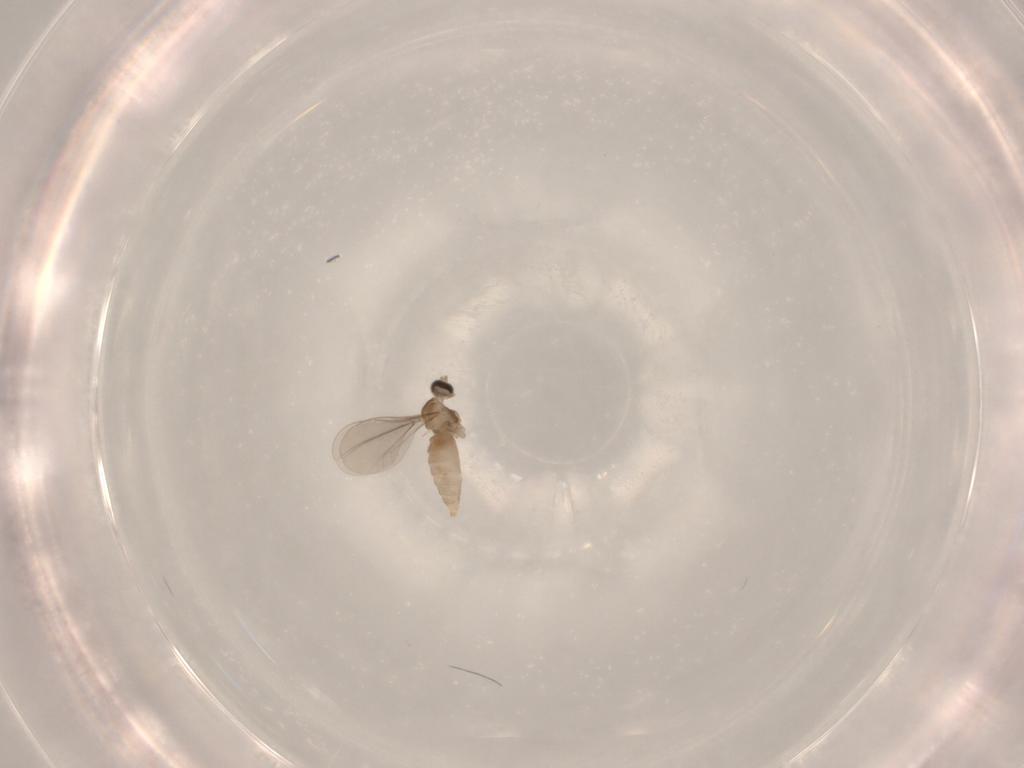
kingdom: Animalia
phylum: Arthropoda
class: Insecta
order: Diptera
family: Cecidomyiidae
